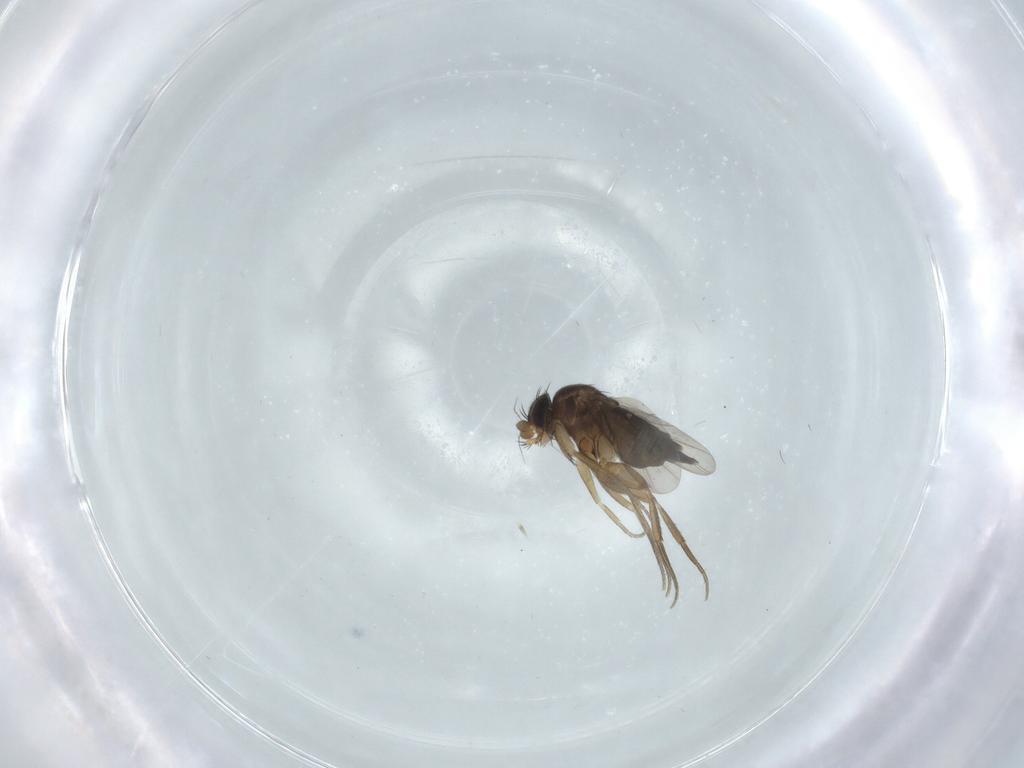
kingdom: Animalia
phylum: Arthropoda
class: Insecta
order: Diptera
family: Phoridae
